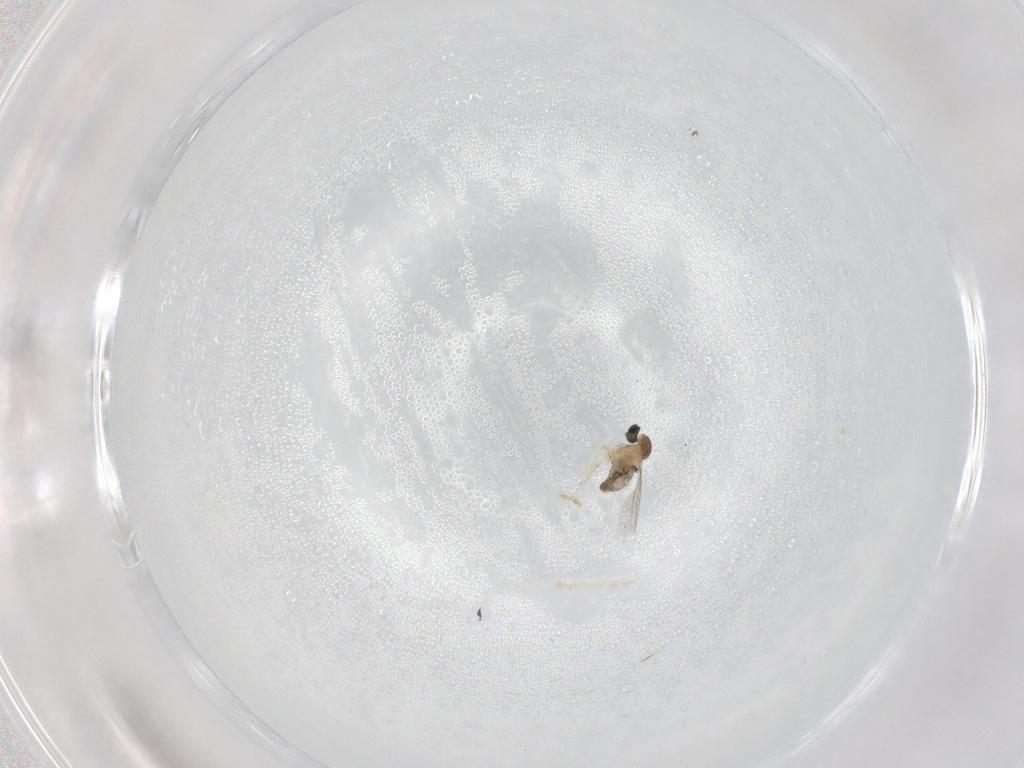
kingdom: Animalia
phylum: Arthropoda
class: Insecta
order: Diptera
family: Cecidomyiidae
